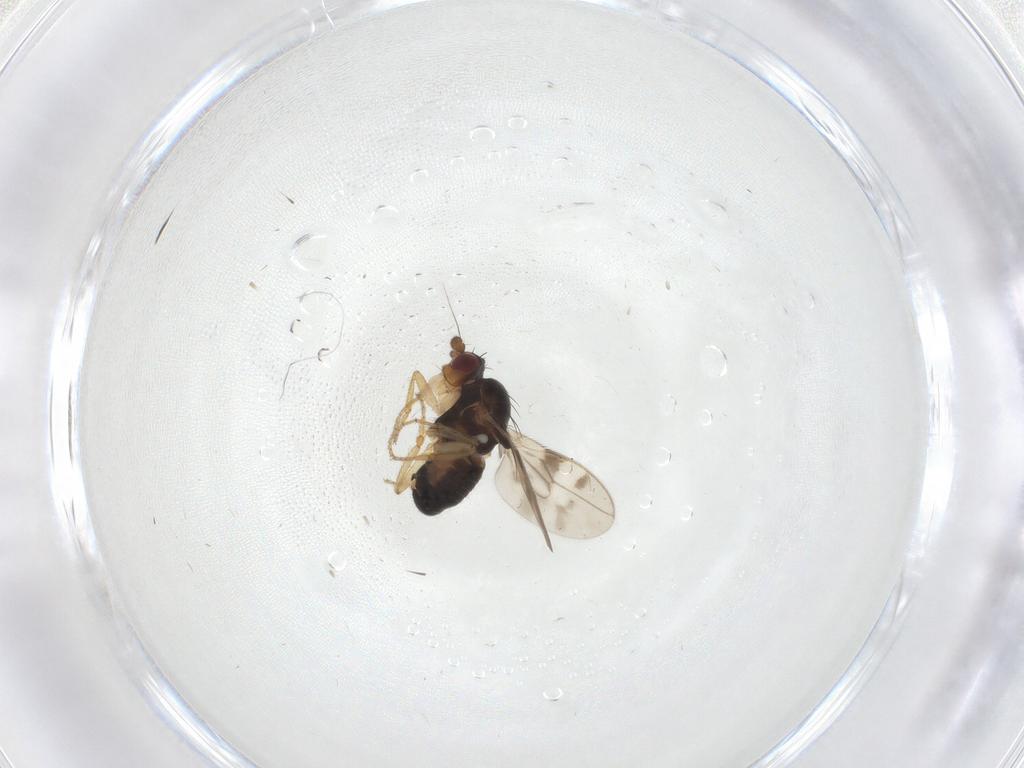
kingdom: Animalia
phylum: Arthropoda
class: Insecta
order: Diptera
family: Sphaeroceridae
